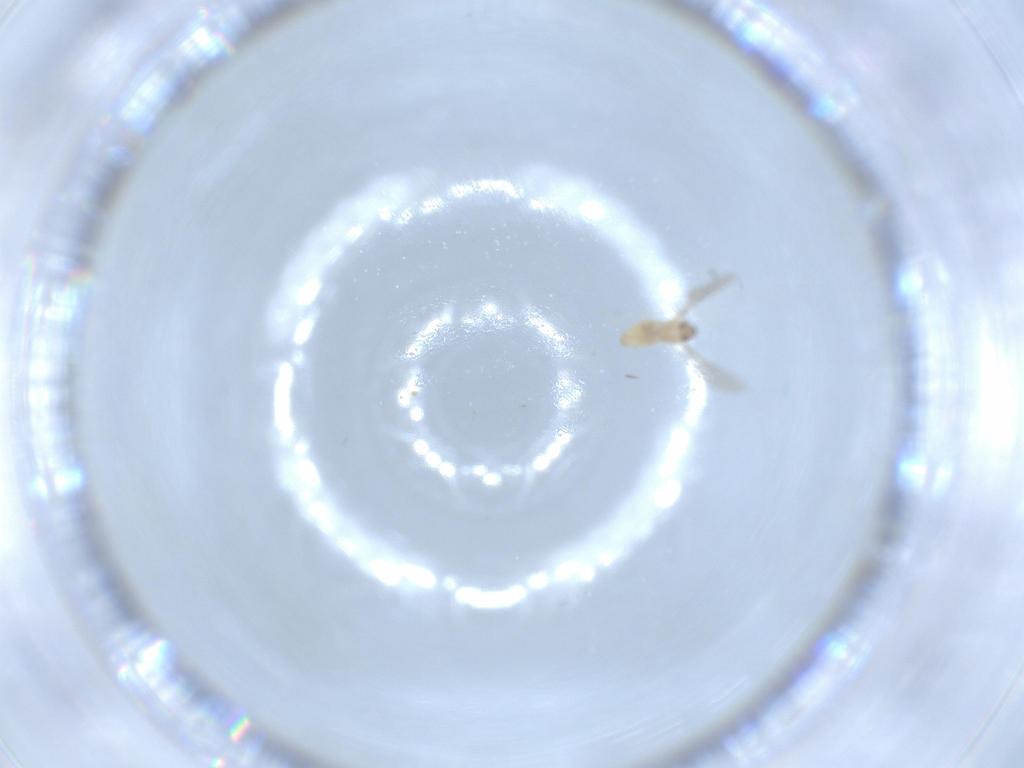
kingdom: Animalia
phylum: Arthropoda
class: Insecta
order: Diptera
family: Cecidomyiidae
